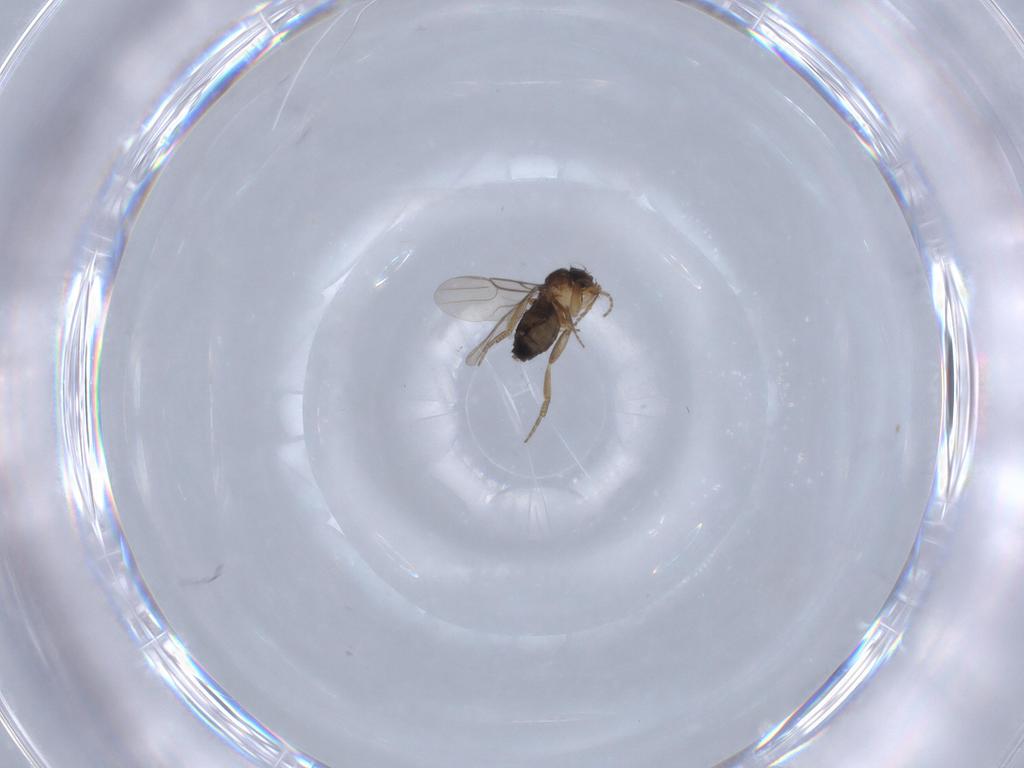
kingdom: Animalia
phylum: Arthropoda
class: Insecta
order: Diptera
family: Phoridae
